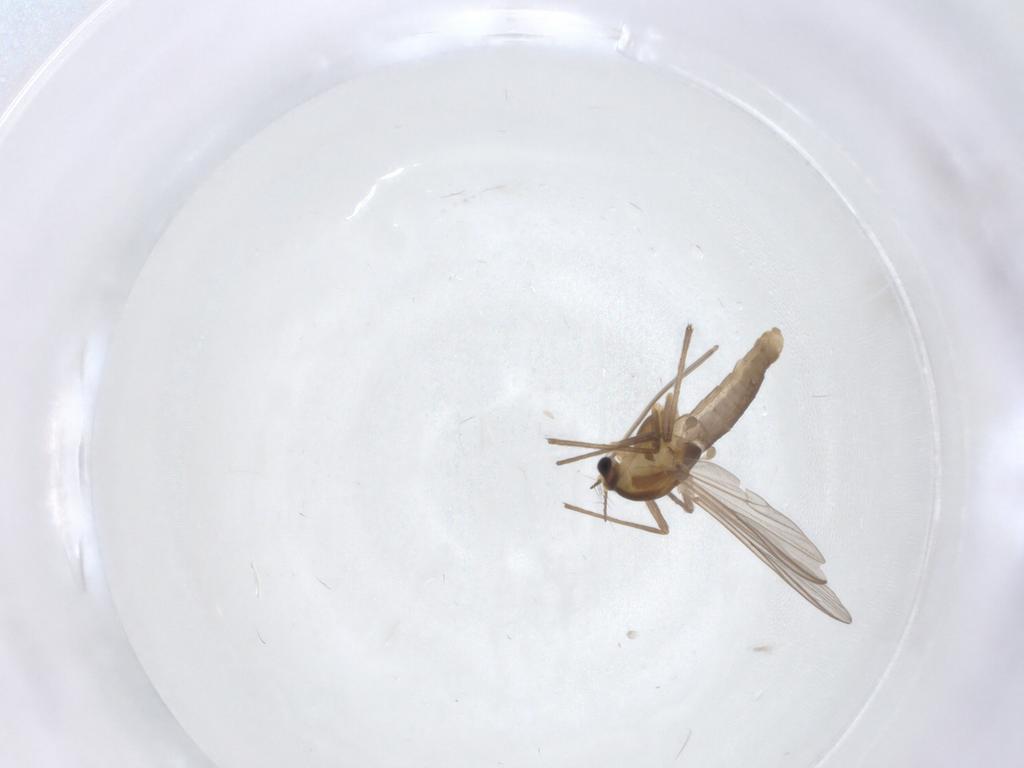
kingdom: Animalia
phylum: Arthropoda
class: Insecta
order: Diptera
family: Chironomidae
